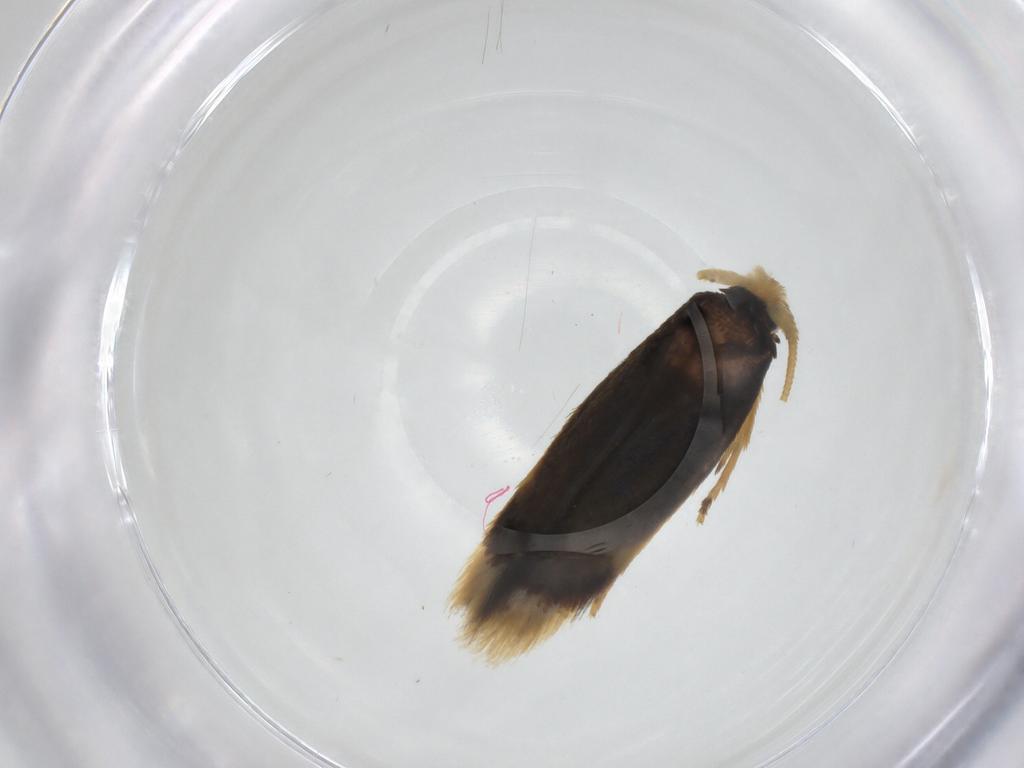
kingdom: Animalia
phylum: Arthropoda
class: Insecta
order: Lepidoptera
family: Nepticulidae
